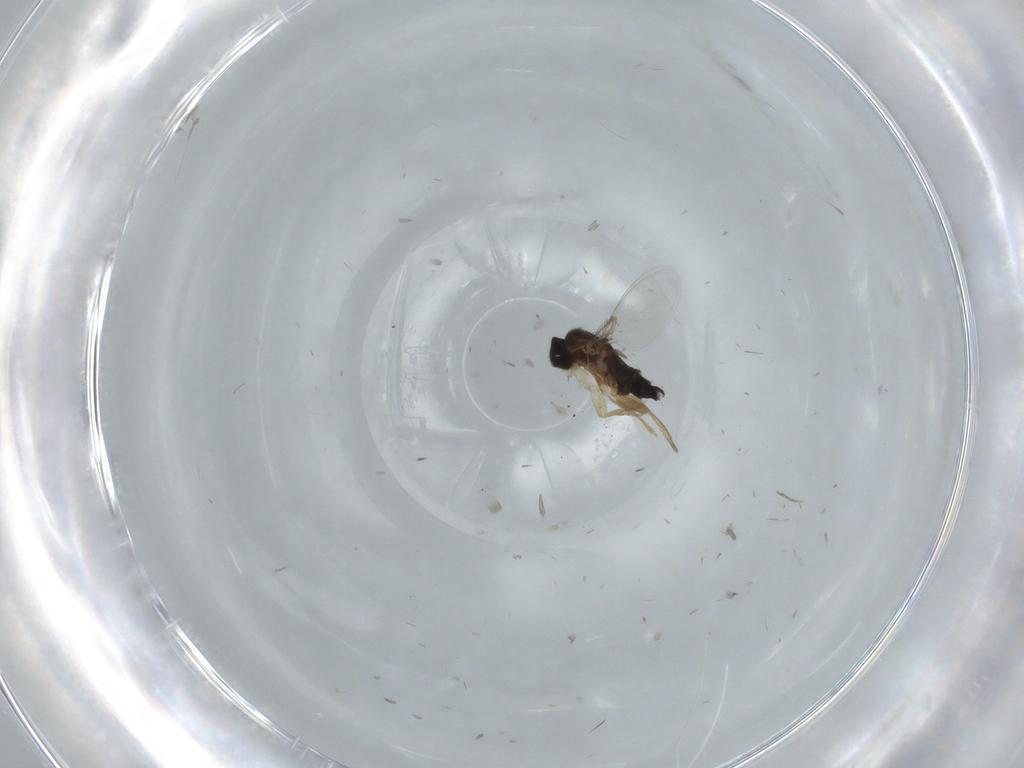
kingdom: Animalia
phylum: Arthropoda
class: Insecta
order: Diptera
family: Phoridae
